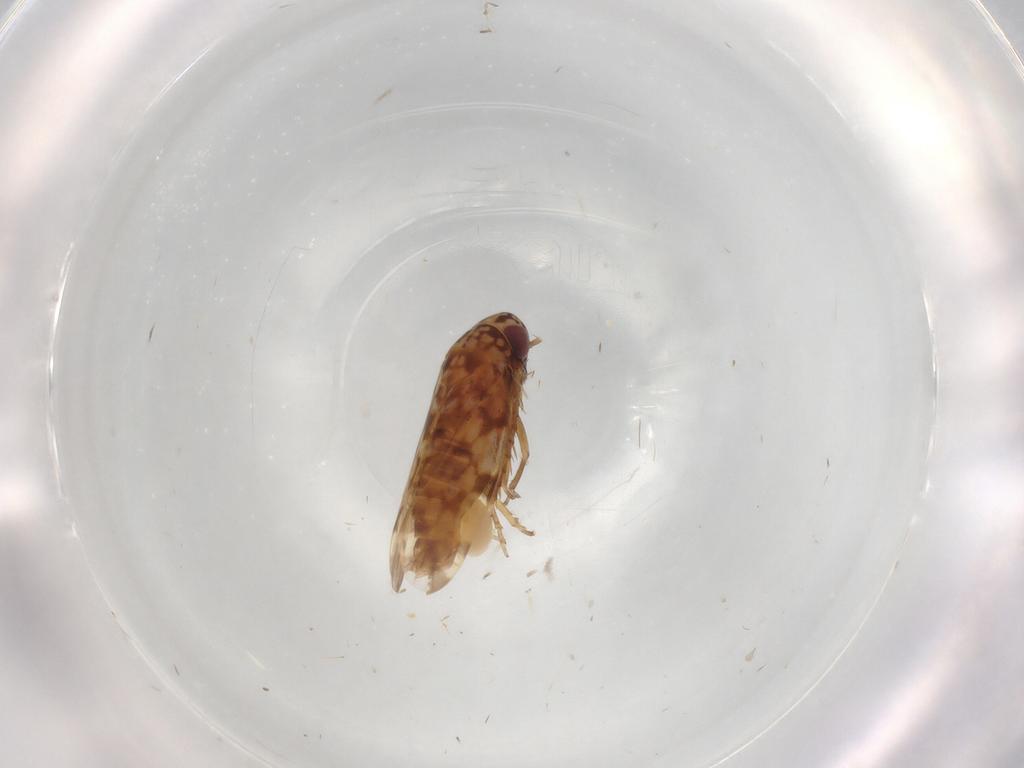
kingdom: Animalia
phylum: Arthropoda
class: Insecta
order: Hemiptera
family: Cicadellidae
